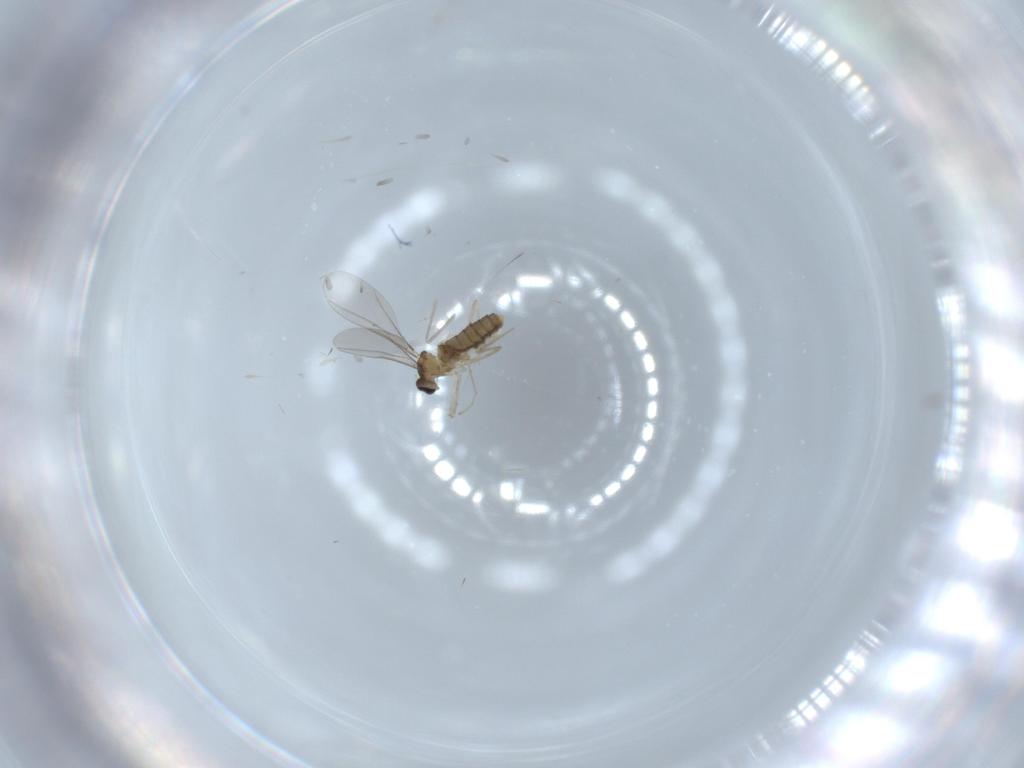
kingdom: Animalia
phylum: Arthropoda
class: Insecta
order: Diptera
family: Cecidomyiidae
